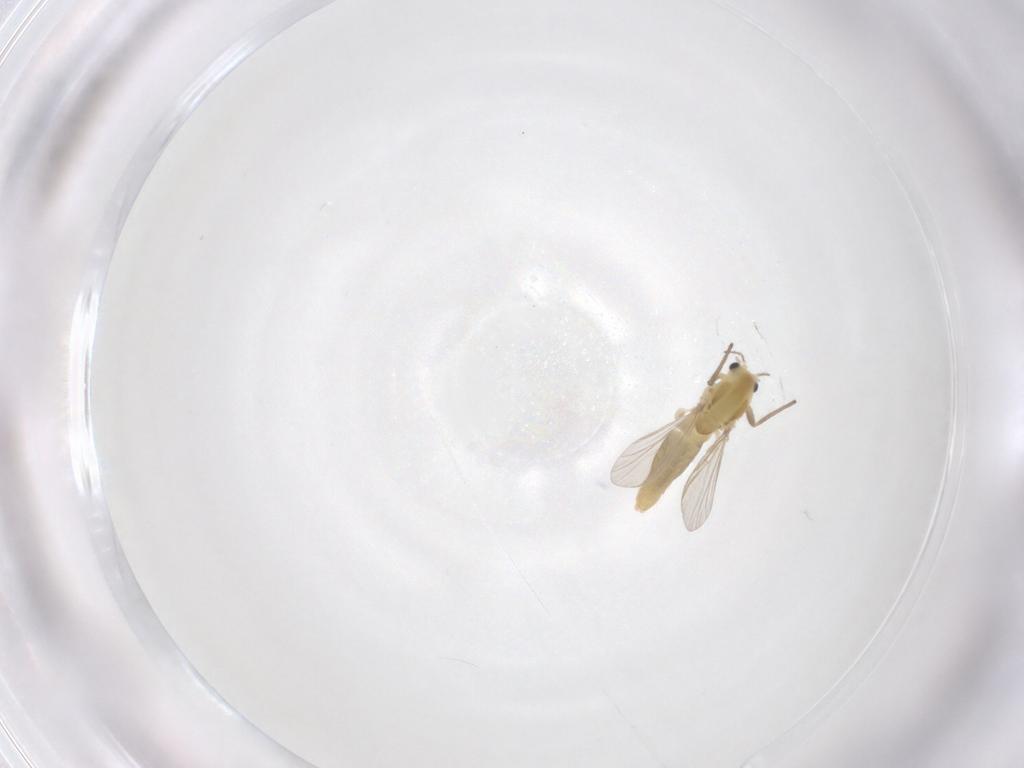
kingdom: Animalia
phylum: Arthropoda
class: Insecta
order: Diptera
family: Chironomidae
